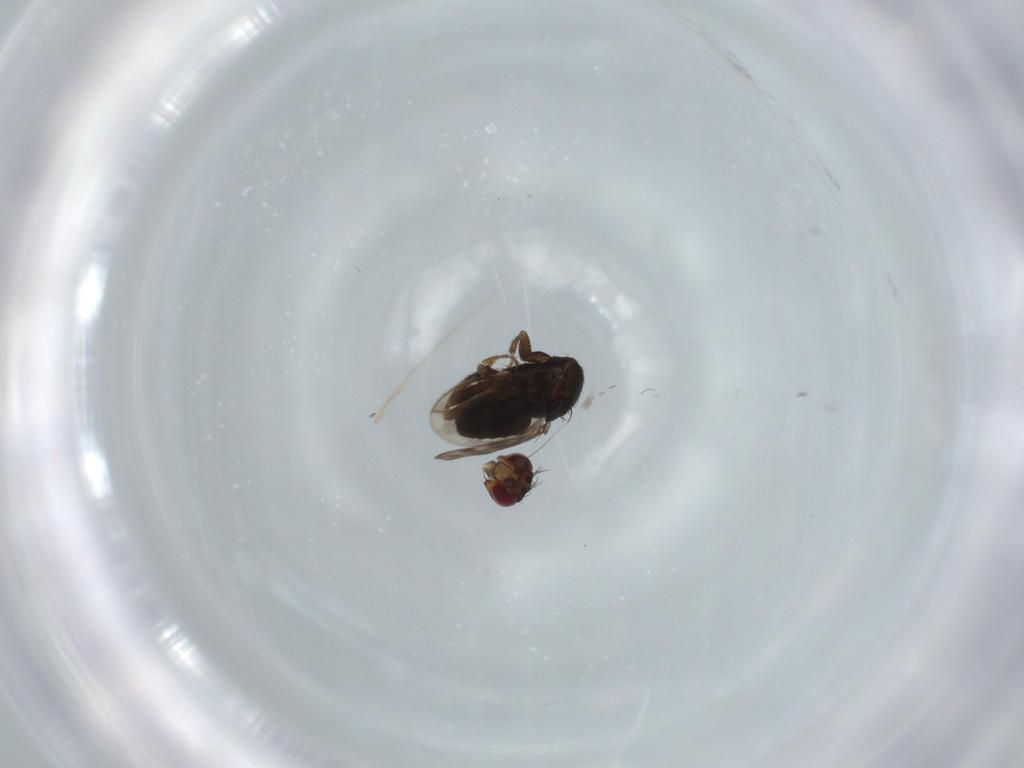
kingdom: Animalia
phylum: Arthropoda
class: Insecta
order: Diptera
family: Sphaeroceridae
